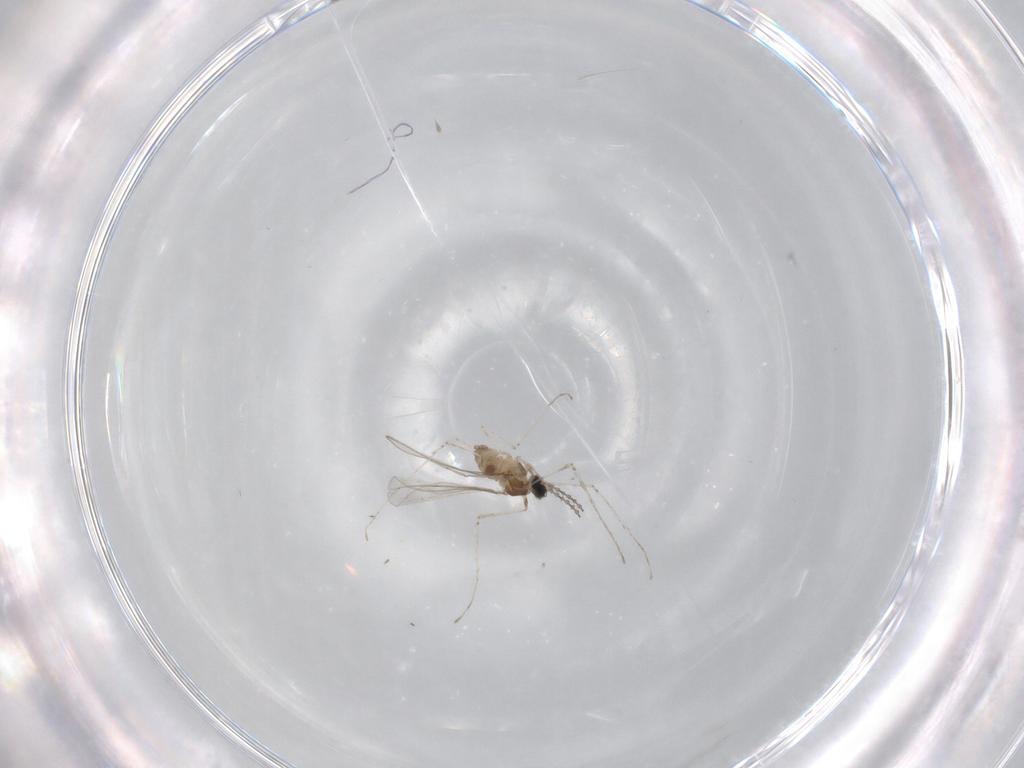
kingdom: Animalia
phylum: Arthropoda
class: Insecta
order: Diptera
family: Cecidomyiidae
